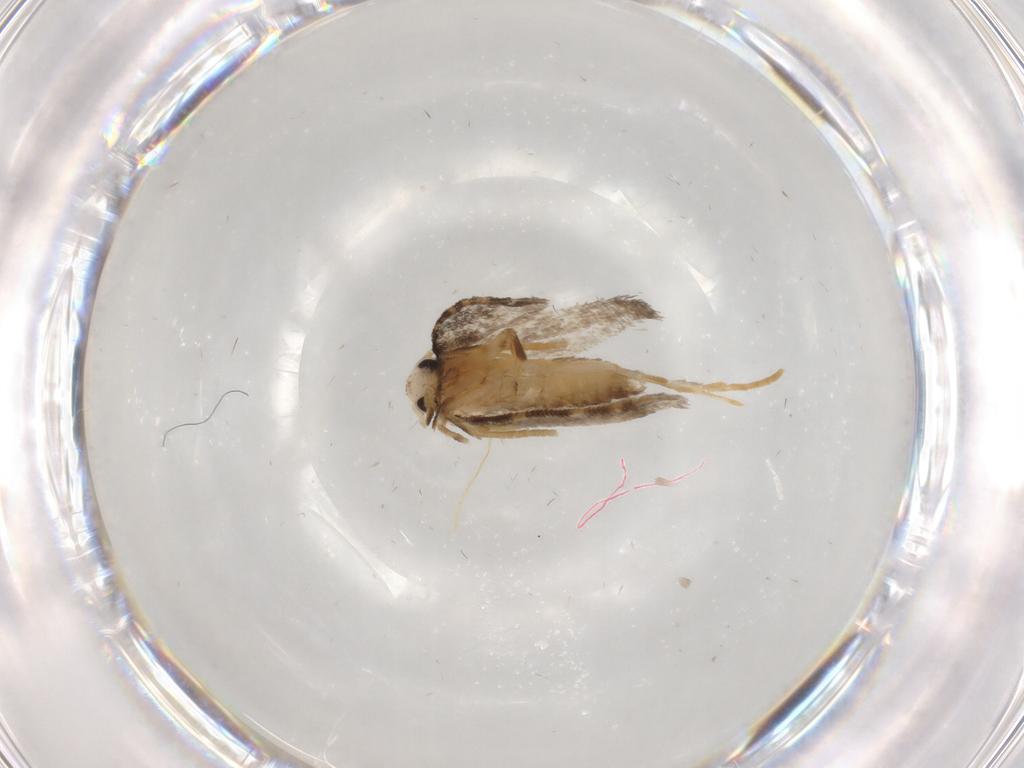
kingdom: Animalia
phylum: Arthropoda
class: Insecta
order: Lepidoptera
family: Psychidae
